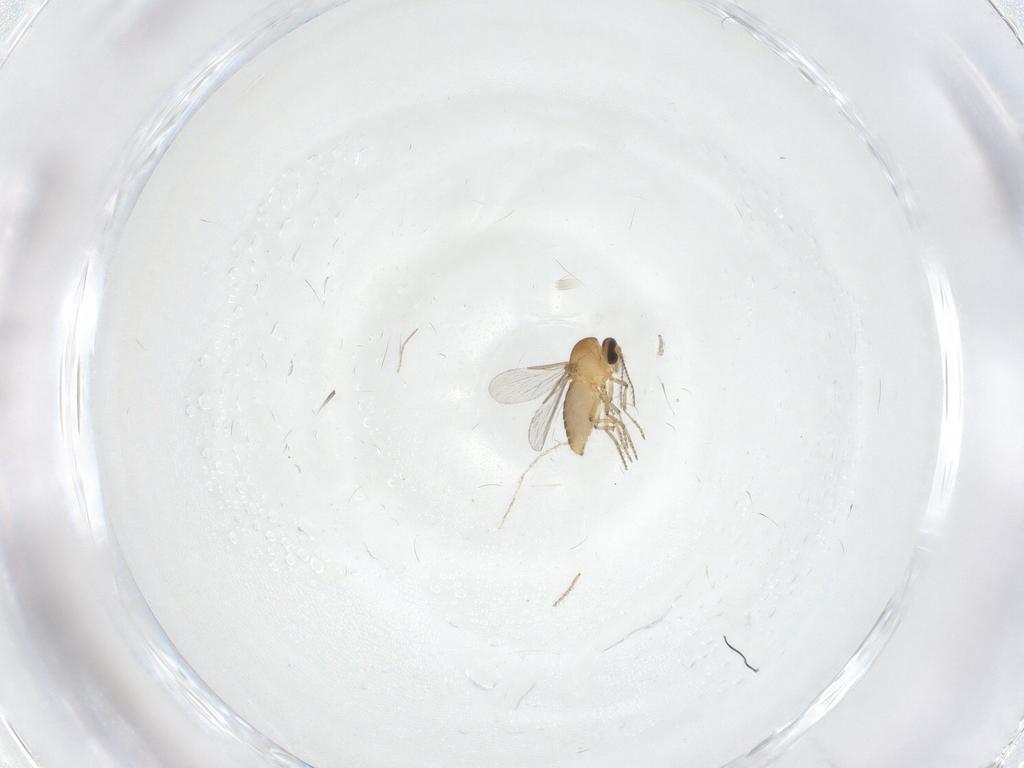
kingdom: Animalia
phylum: Arthropoda
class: Insecta
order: Diptera
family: Ceratopogonidae
